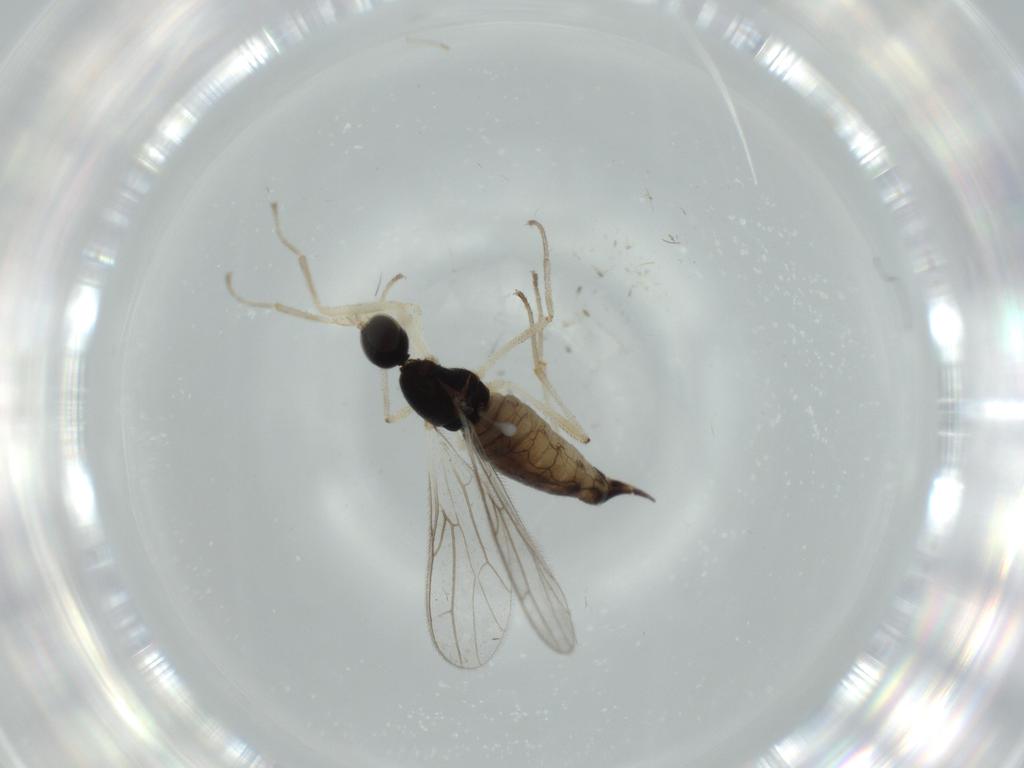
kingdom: Animalia
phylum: Arthropoda
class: Insecta
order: Diptera
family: Empididae
